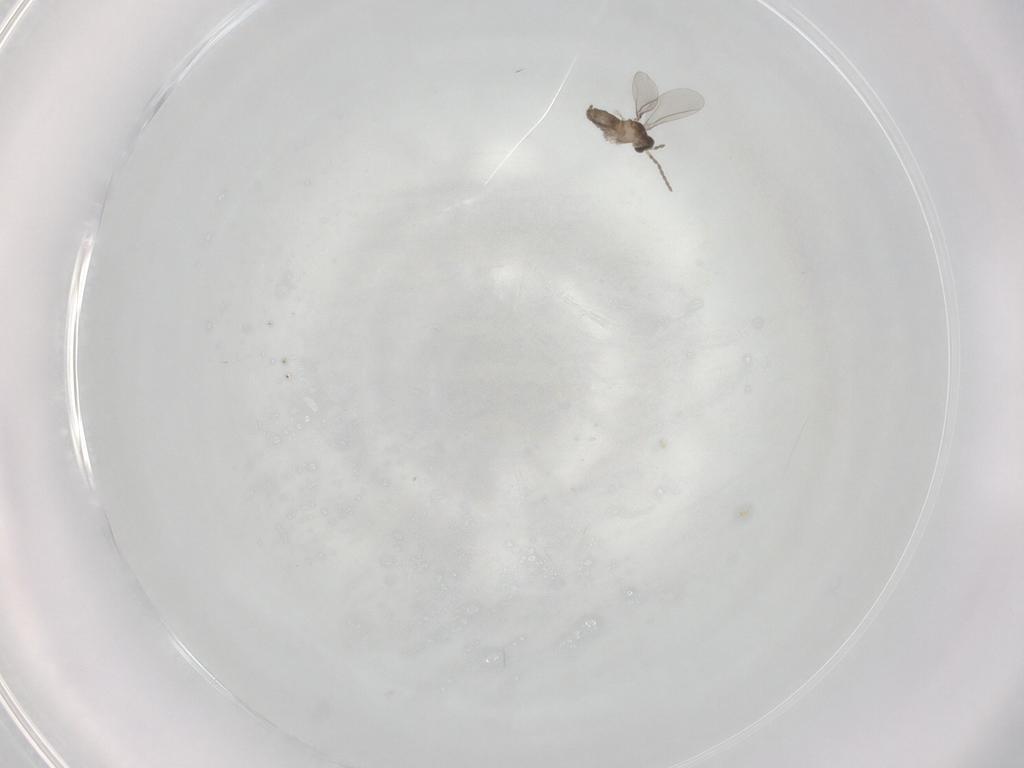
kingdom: Animalia
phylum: Arthropoda
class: Insecta
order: Diptera
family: Cecidomyiidae
